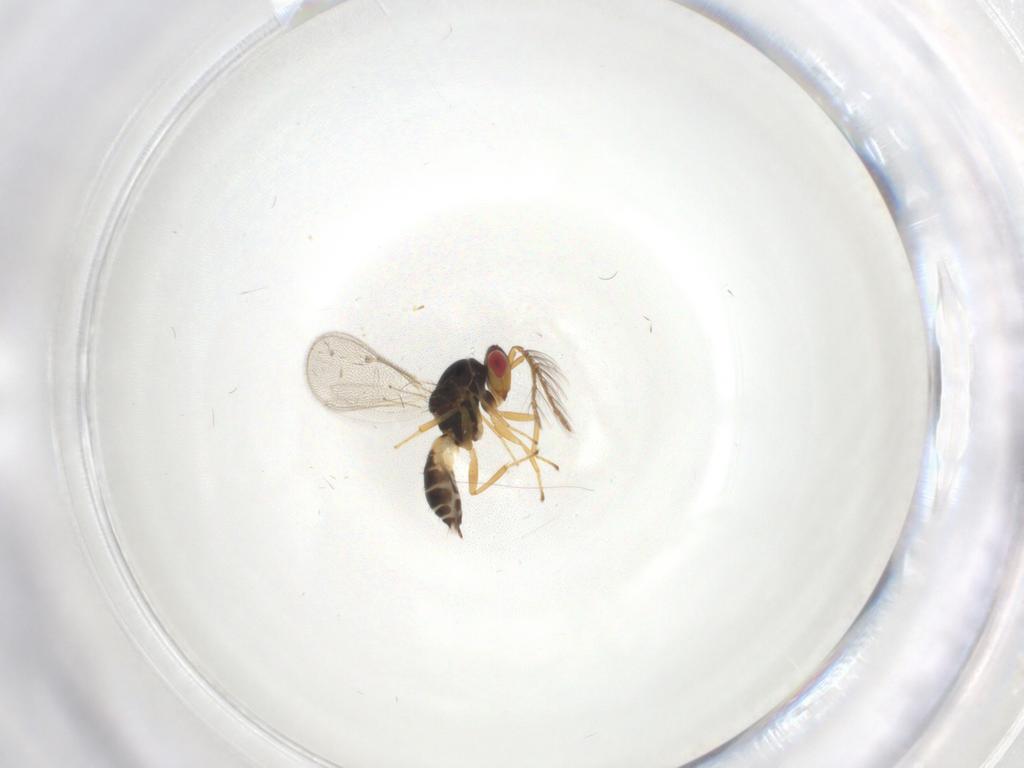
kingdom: Animalia
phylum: Arthropoda
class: Insecta
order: Hymenoptera
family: Eulophidae
